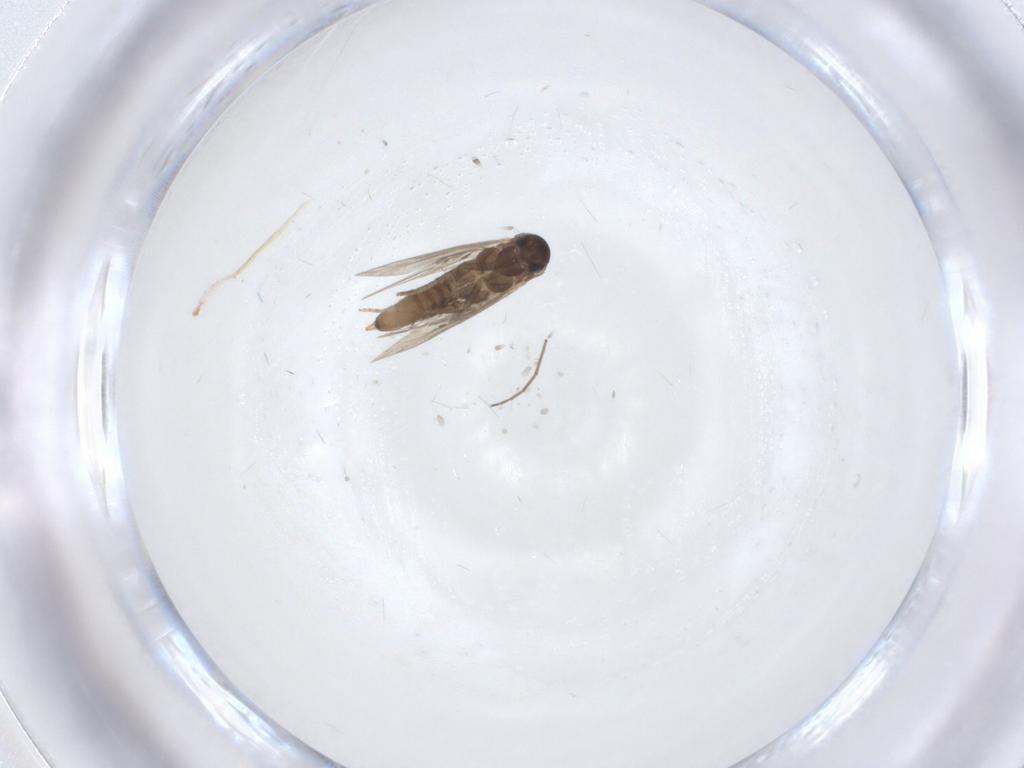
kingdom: Animalia
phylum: Arthropoda
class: Insecta
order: Diptera
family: Chironomidae
